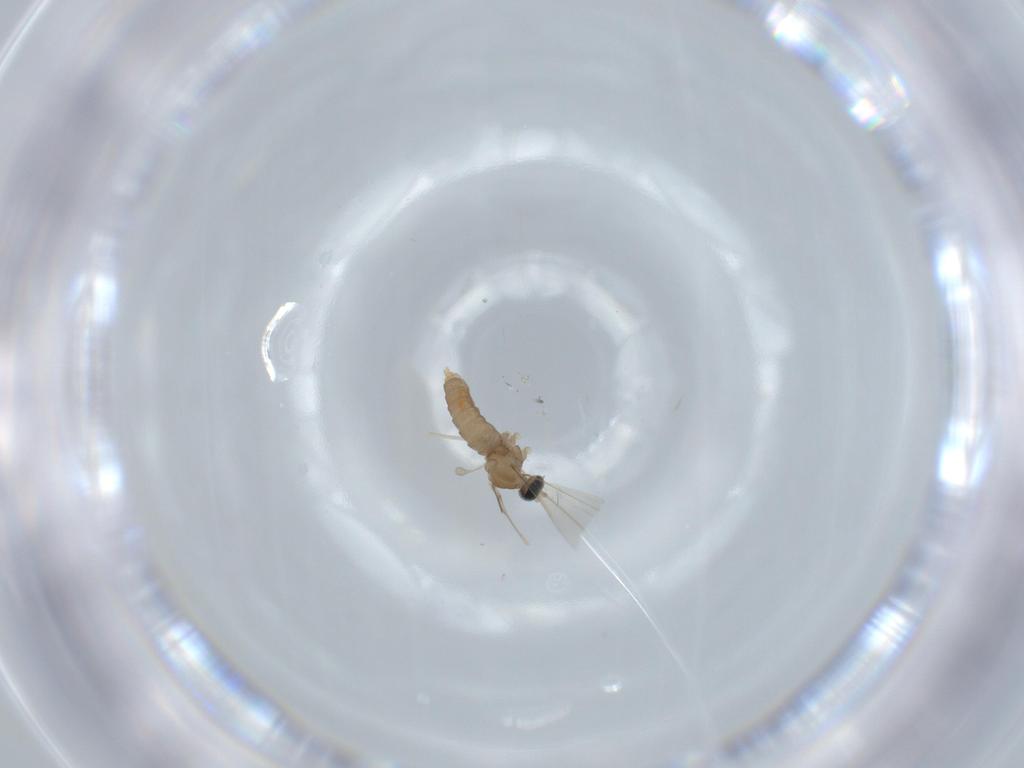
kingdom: Animalia
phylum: Arthropoda
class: Insecta
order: Diptera
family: Cecidomyiidae
